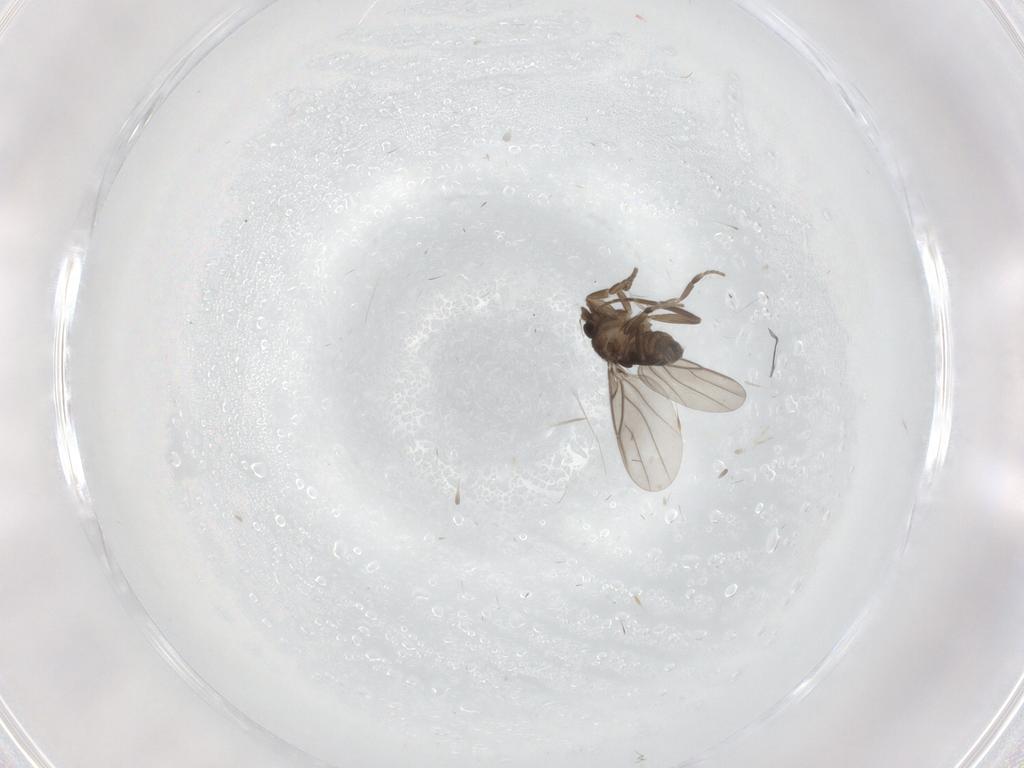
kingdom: Animalia
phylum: Arthropoda
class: Insecta
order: Diptera
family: Phoridae
